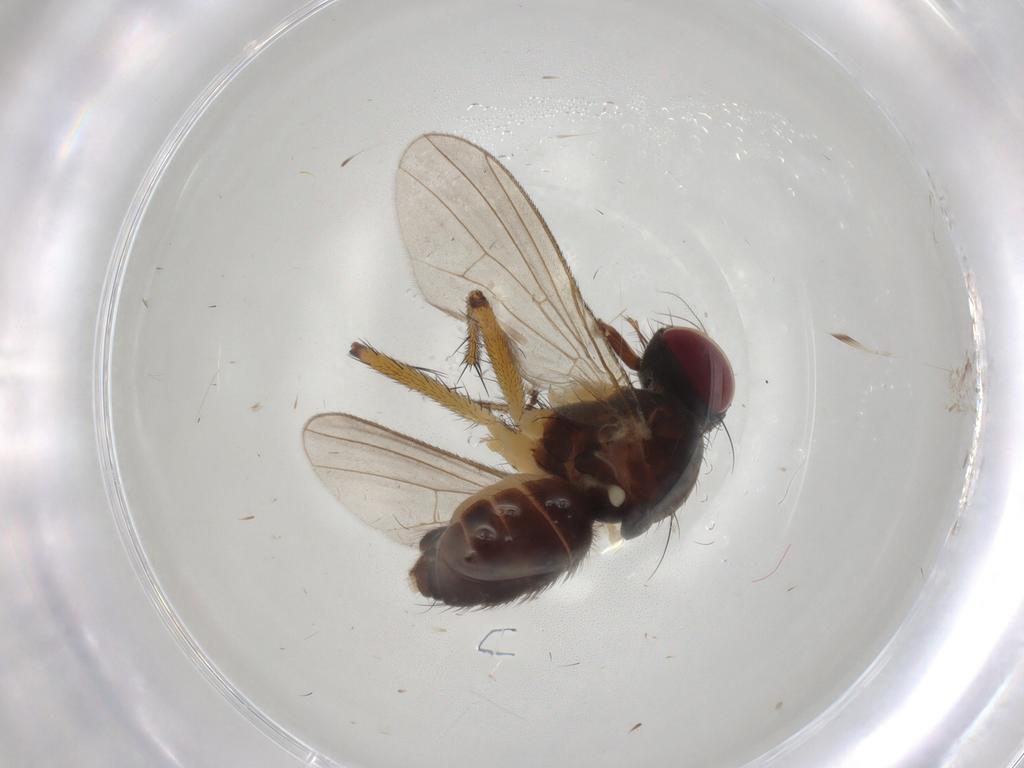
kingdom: Animalia
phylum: Arthropoda
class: Insecta
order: Diptera
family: Muscidae
